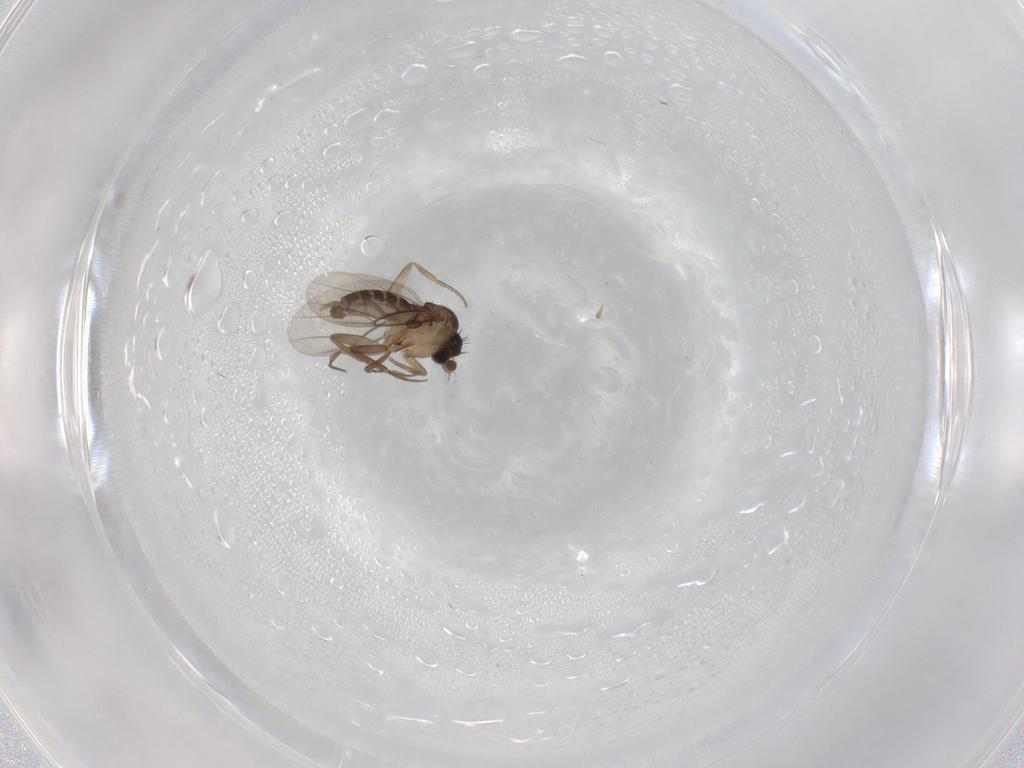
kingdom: Animalia
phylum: Arthropoda
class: Insecta
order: Diptera
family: Phoridae
